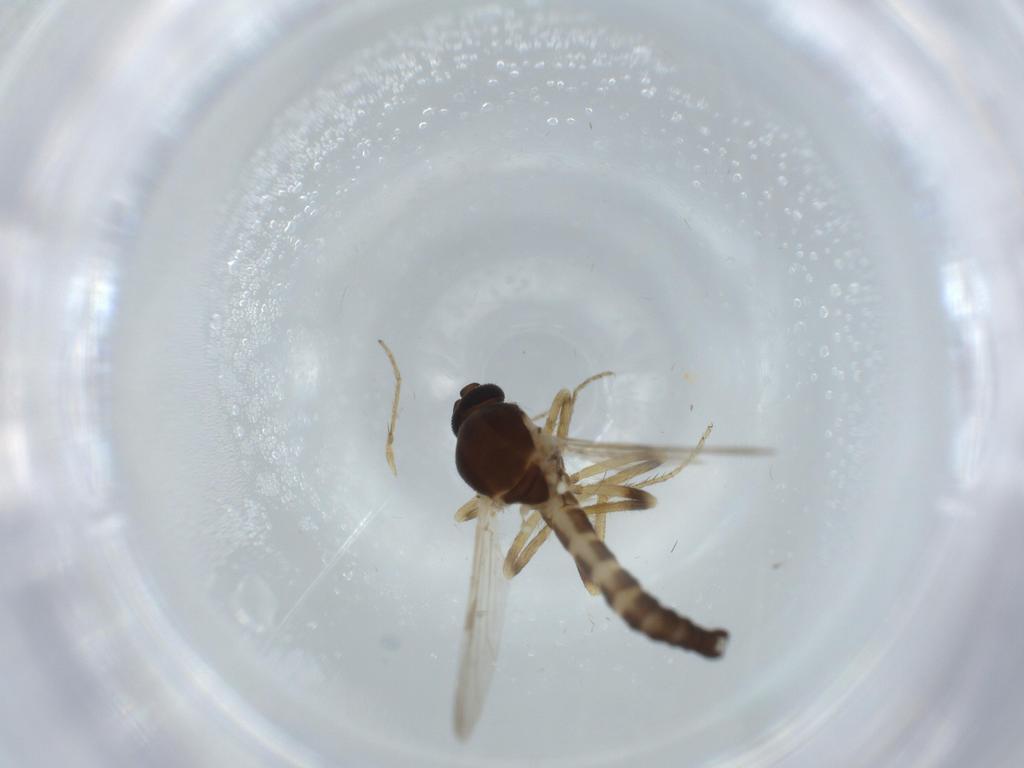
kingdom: Animalia
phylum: Arthropoda
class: Insecta
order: Diptera
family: Ceratopogonidae
